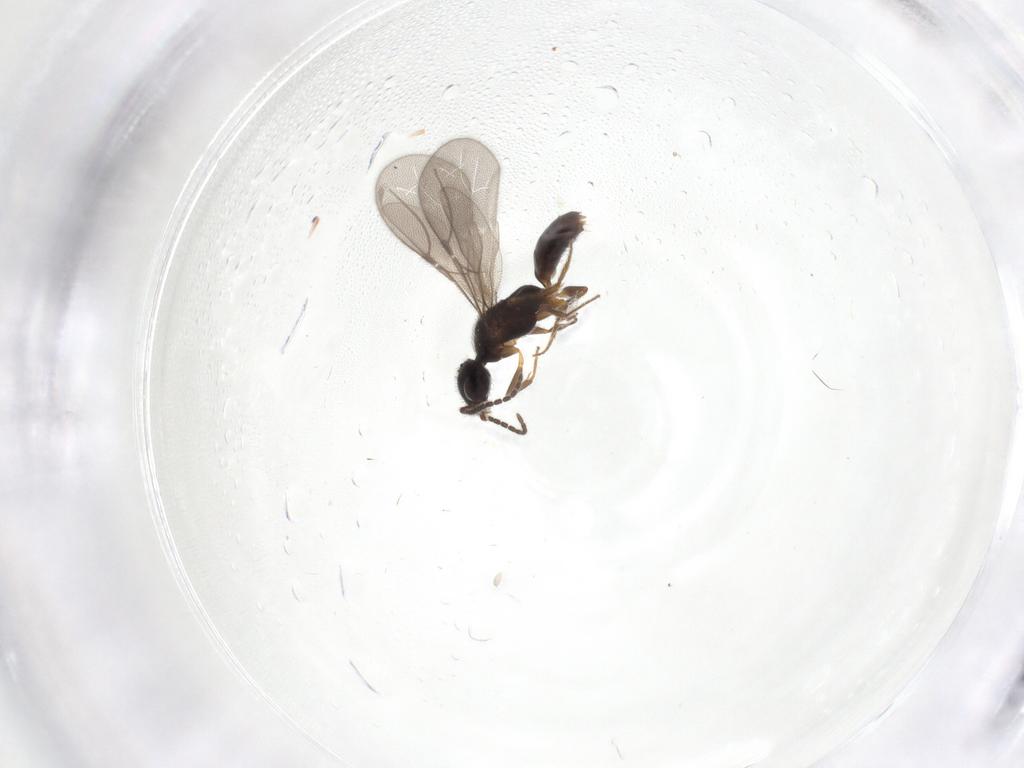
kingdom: Animalia
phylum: Arthropoda
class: Insecta
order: Hymenoptera
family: Bethylidae
